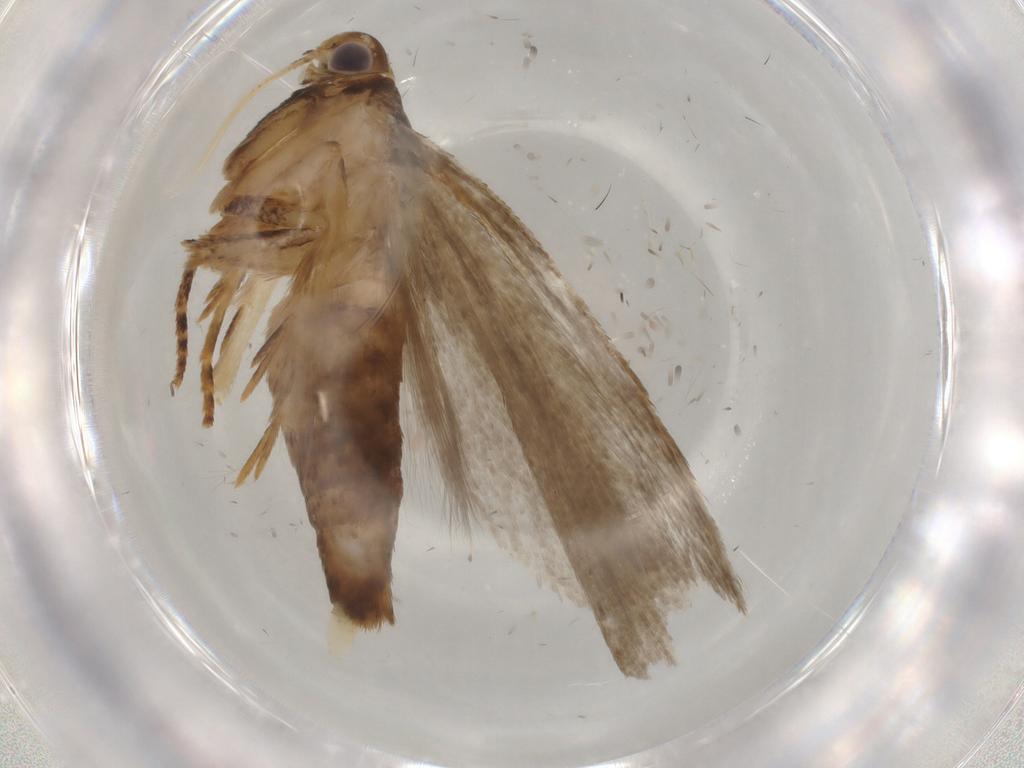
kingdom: Animalia
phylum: Arthropoda
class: Insecta
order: Lepidoptera
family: Gelechiidae
